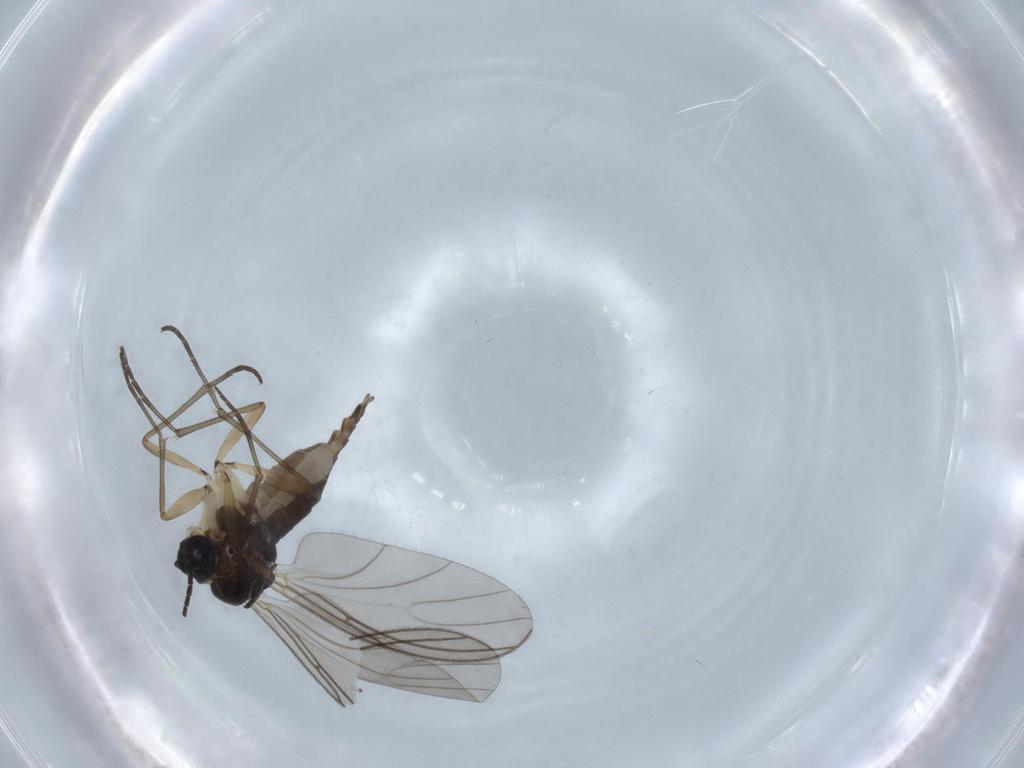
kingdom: Animalia
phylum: Arthropoda
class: Insecta
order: Diptera
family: Sciaridae
